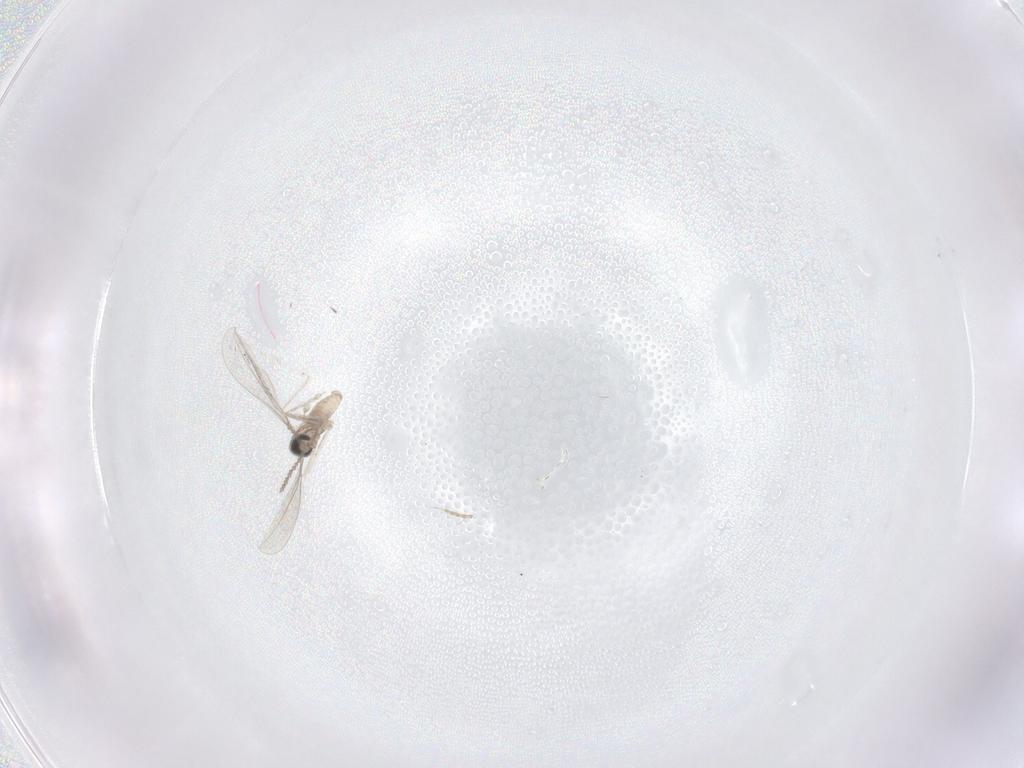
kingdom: Animalia
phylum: Arthropoda
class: Insecta
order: Diptera
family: Cecidomyiidae
